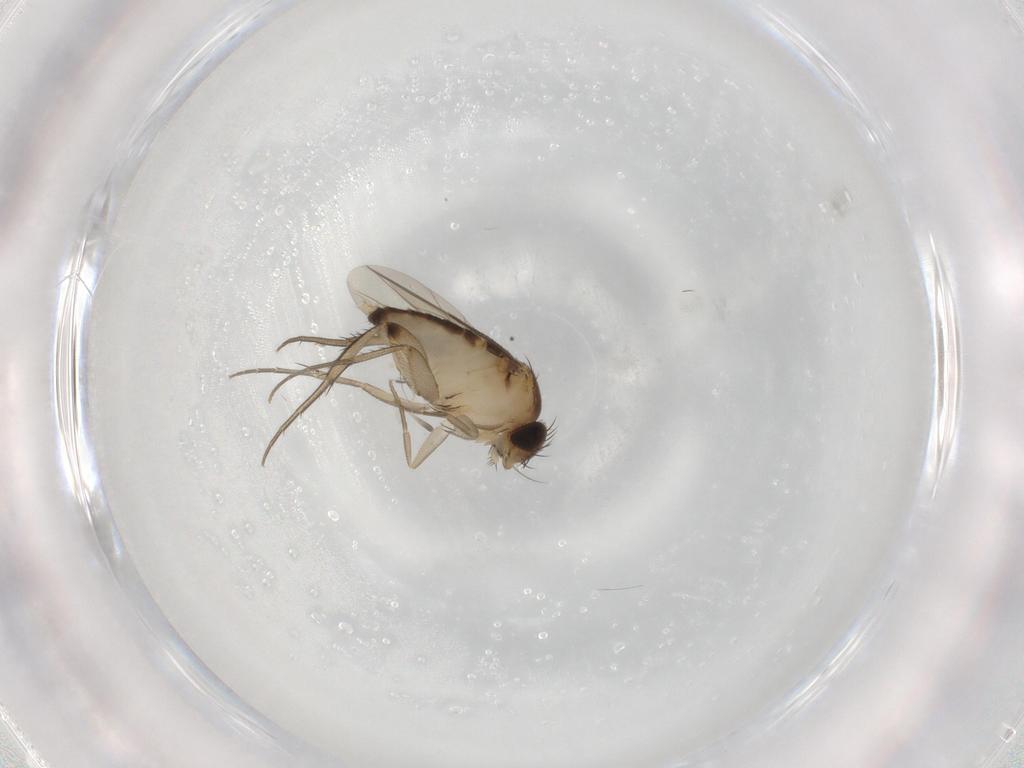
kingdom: Animalia
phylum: Arthropoda
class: Insecta
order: Diptera
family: Phoridae
